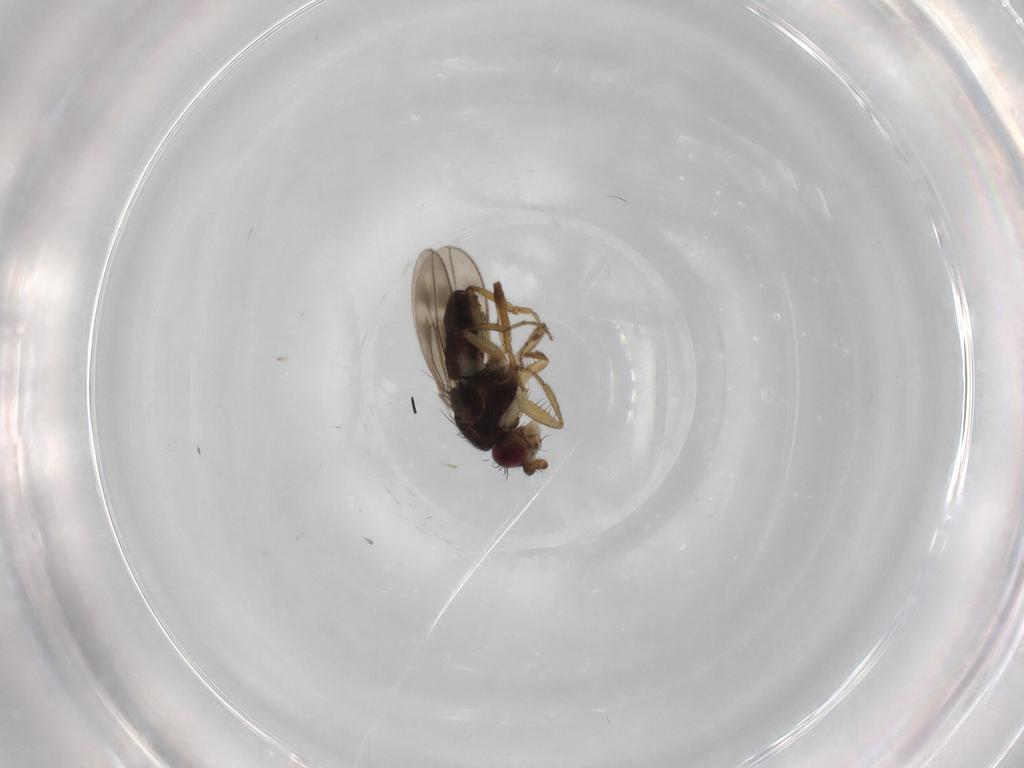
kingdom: Animalia
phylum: Arthropoda
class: Insecta
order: Diptera
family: Sphaeroceridae
